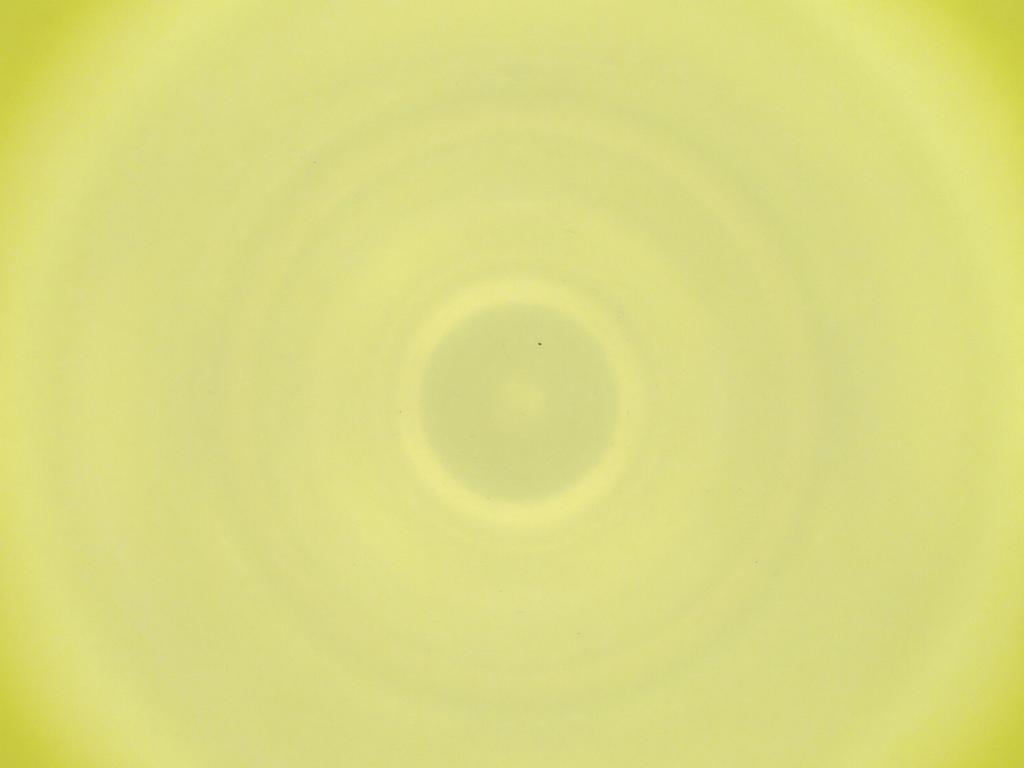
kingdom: Animalia
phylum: Arthropoda
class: Insecta
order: Diptera
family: Cecidomyiidae
